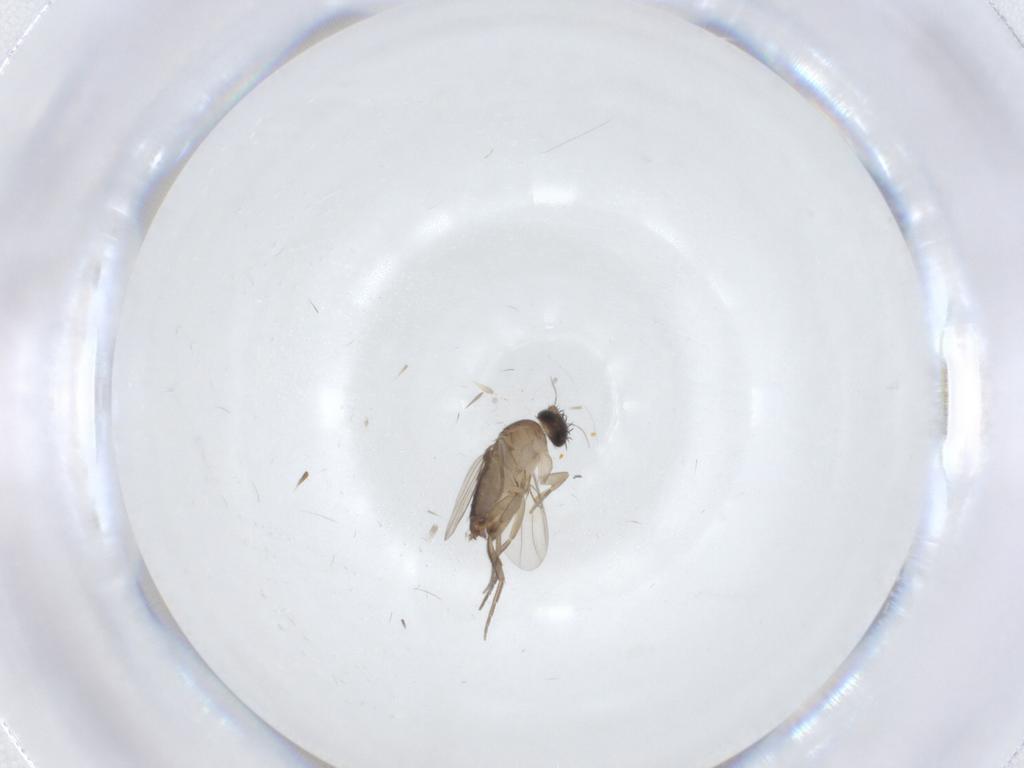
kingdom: Animalia
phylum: Arthropoda
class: Insecta
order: Diptera
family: Phoridae
